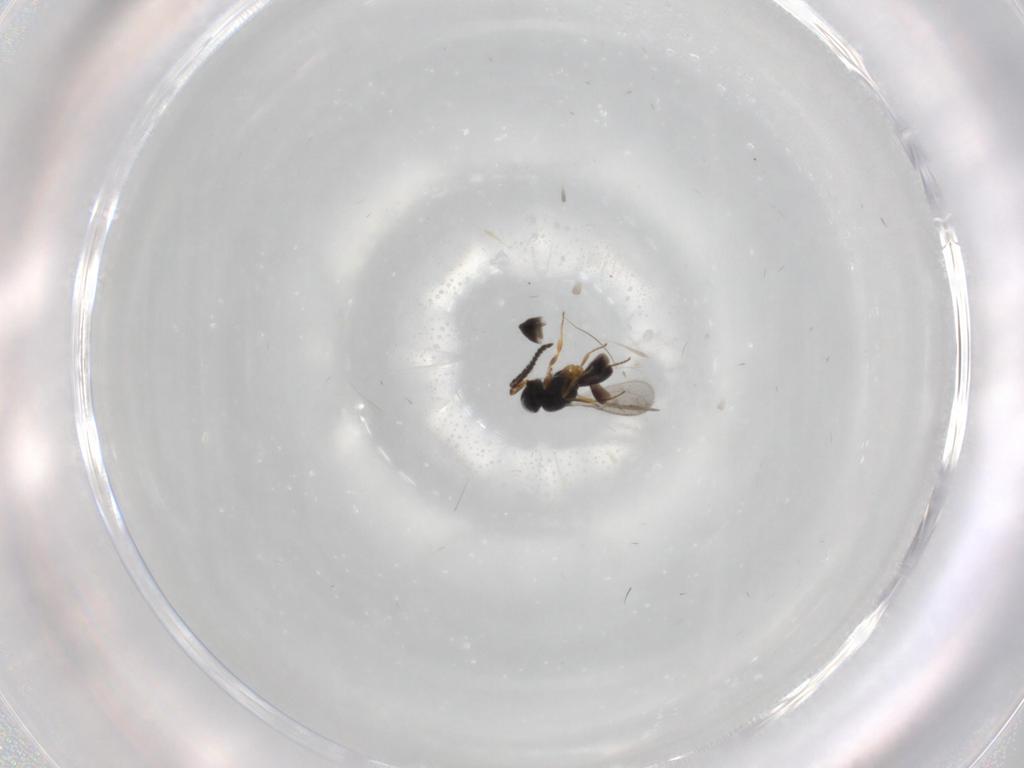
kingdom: Animalia
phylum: Arthropoda
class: Insecta
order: Hymenoptera
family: Scelionidae
